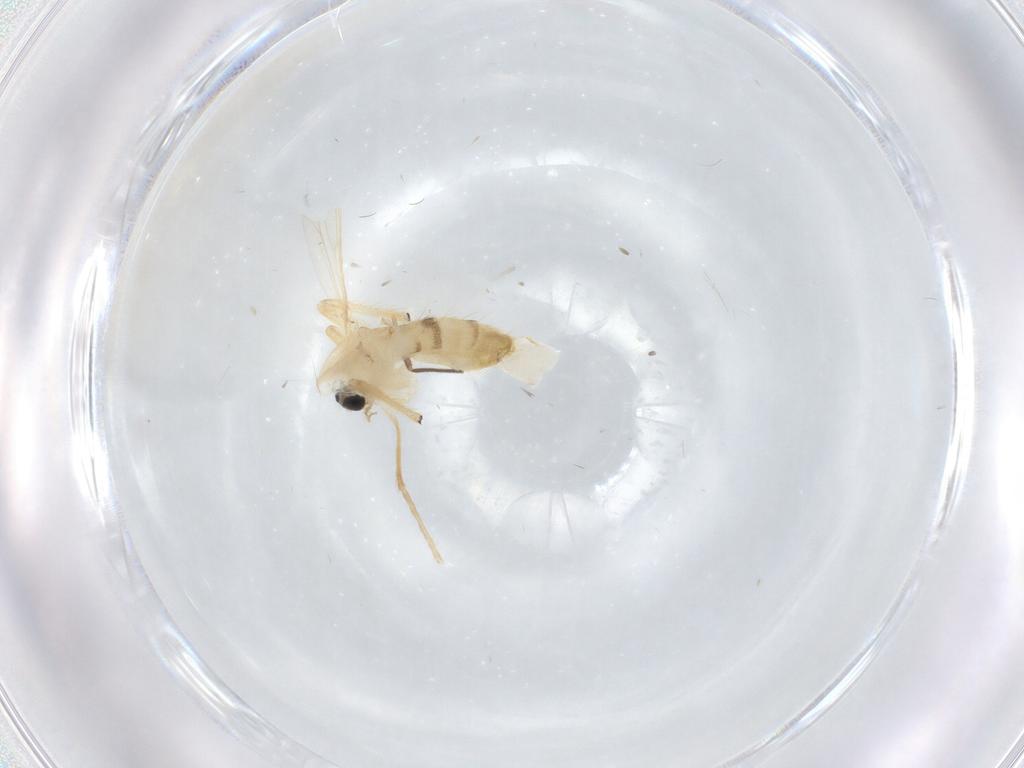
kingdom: Animalia
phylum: Arthropoda
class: Insecta
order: Diptera
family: Chironomidae
